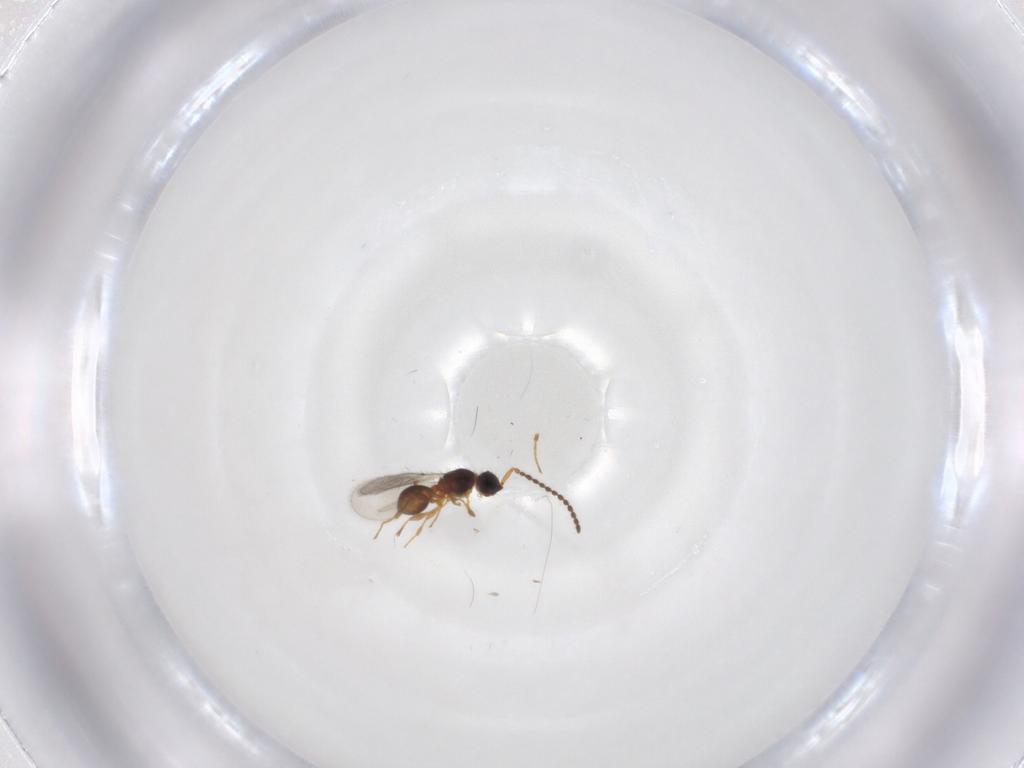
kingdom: Animalia
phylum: Arthropoda
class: Insecta
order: Hymenoptera
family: Diapriidae
